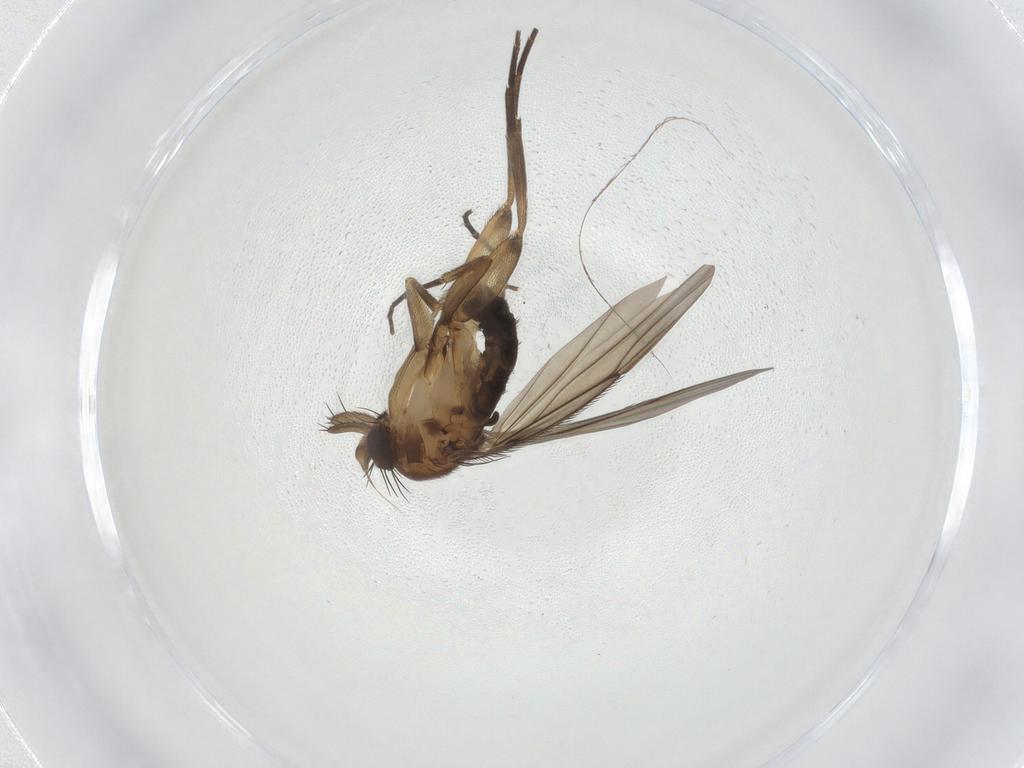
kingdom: Animalia
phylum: Arthropoda
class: Insecta
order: Diptera
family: Phoridae
